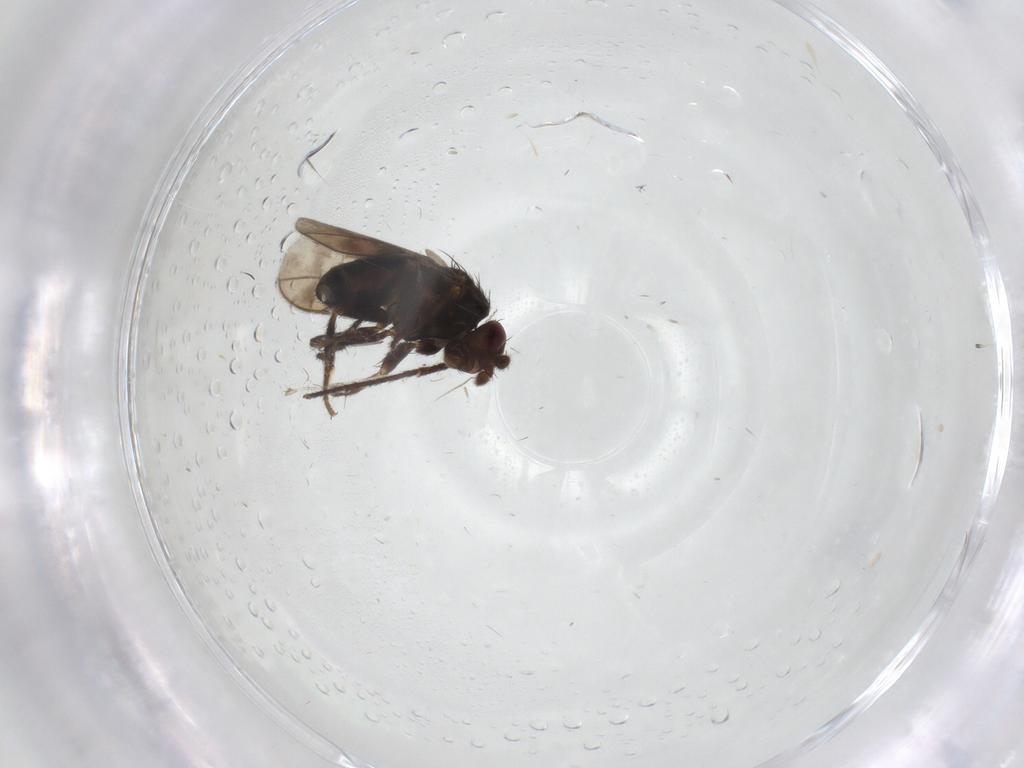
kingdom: Animalia
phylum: Arthropoda
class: Insecta
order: Diptera
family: Sphaeroceridae
